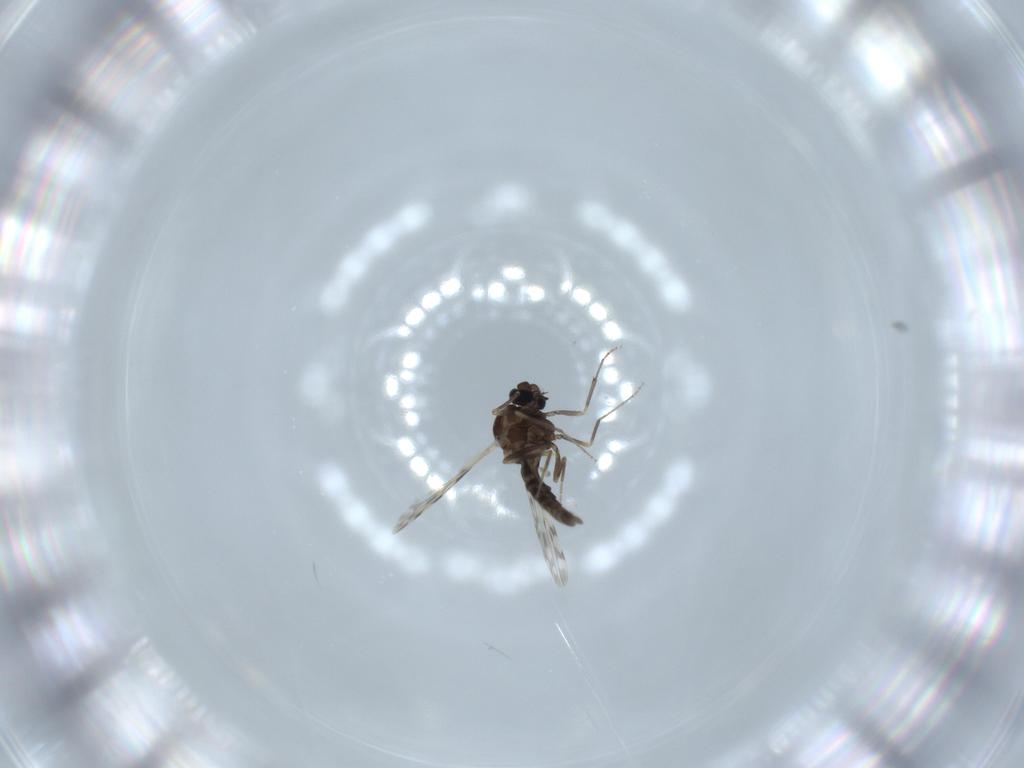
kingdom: Animalia
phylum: Arthropoda
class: Insecta
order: Diptera
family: Ceratopogonidae
